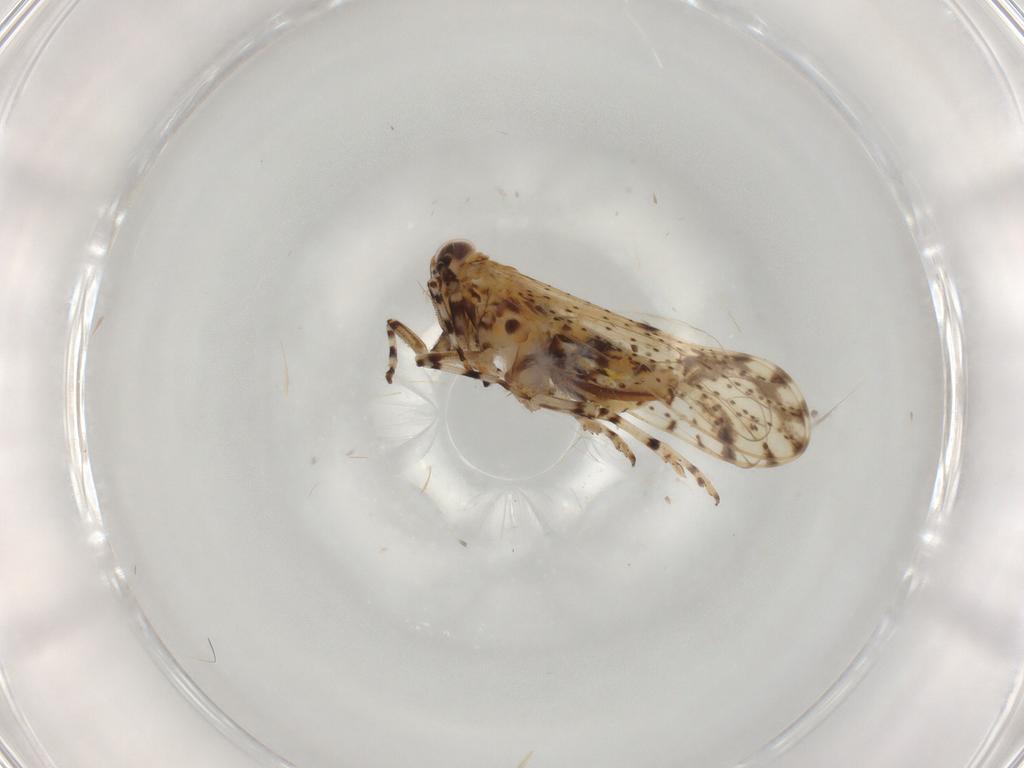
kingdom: Animalia
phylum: Arthropoda
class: Insecta
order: Hemiptera
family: Delphacidae
